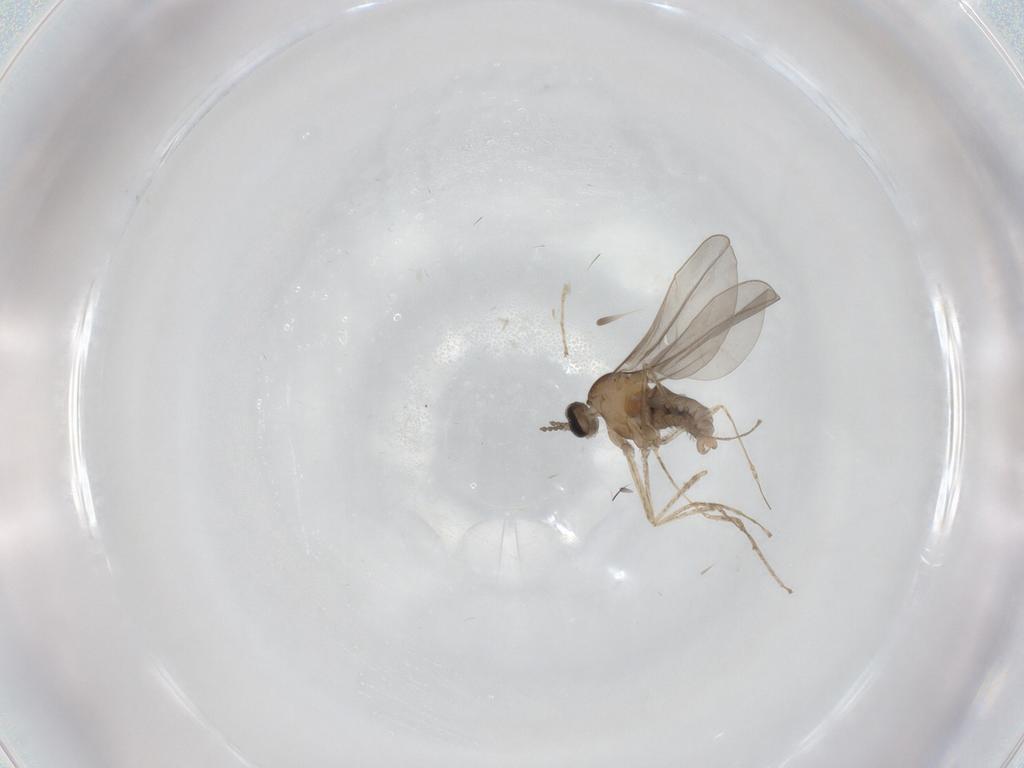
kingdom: Animalia
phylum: Arthropoda
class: Insecta
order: Diptera
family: Cecidomyiidae
